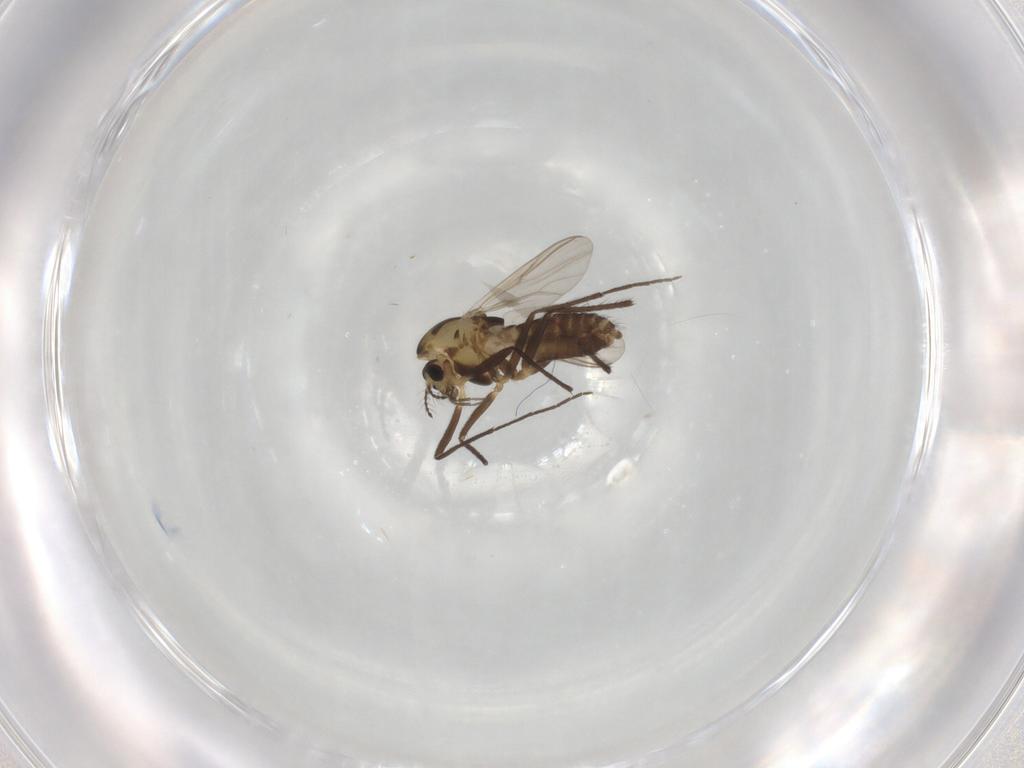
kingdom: Animalia
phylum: Arthropoda
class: Insecta
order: Diptera
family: Chironomidae
